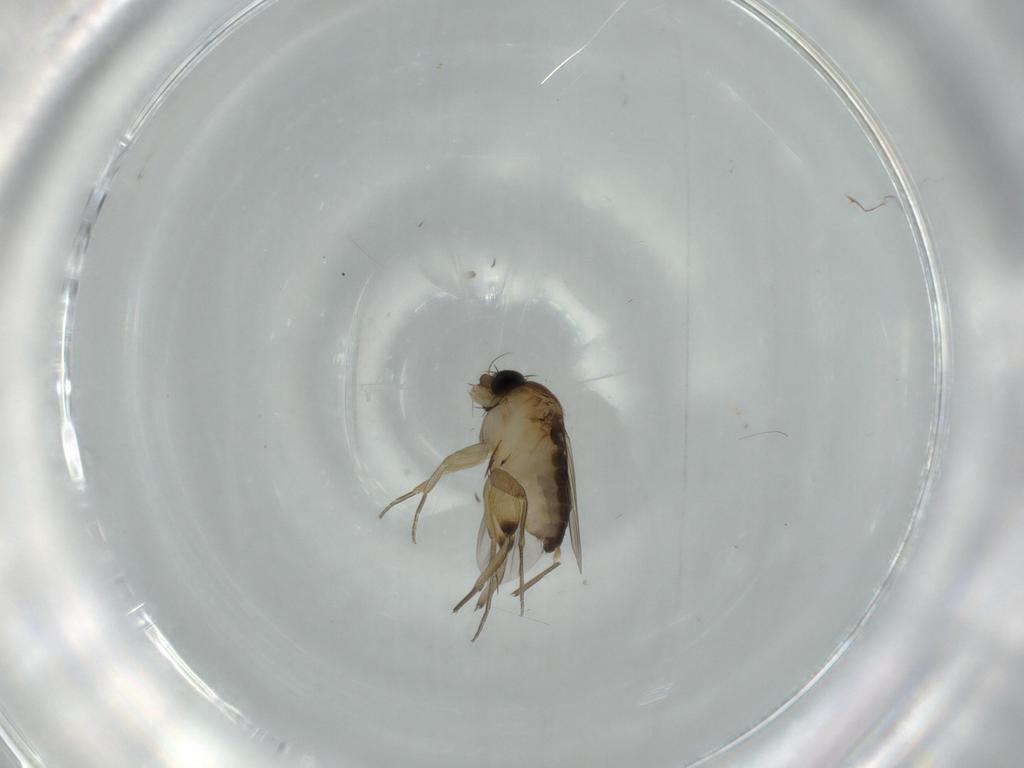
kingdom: Animalia
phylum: Arthropoda
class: Insecta
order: Diptera
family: Phoridae
